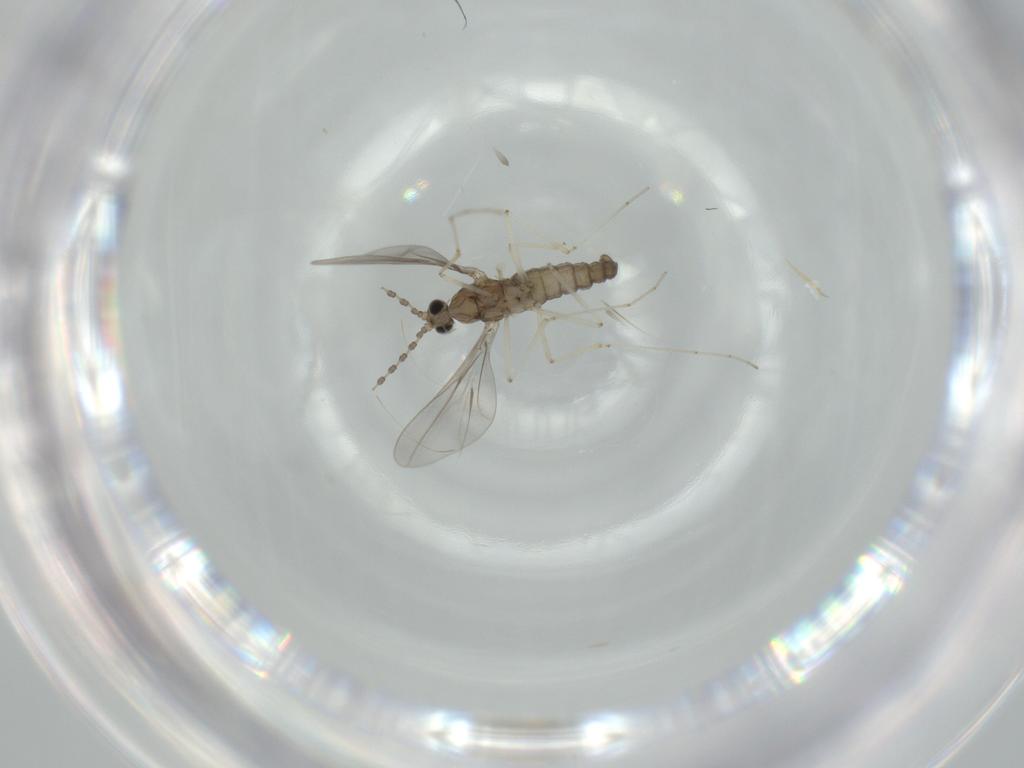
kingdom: Animalia
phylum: Arthropoda
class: Insecta
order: Diptera
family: Cecidomyiidae
